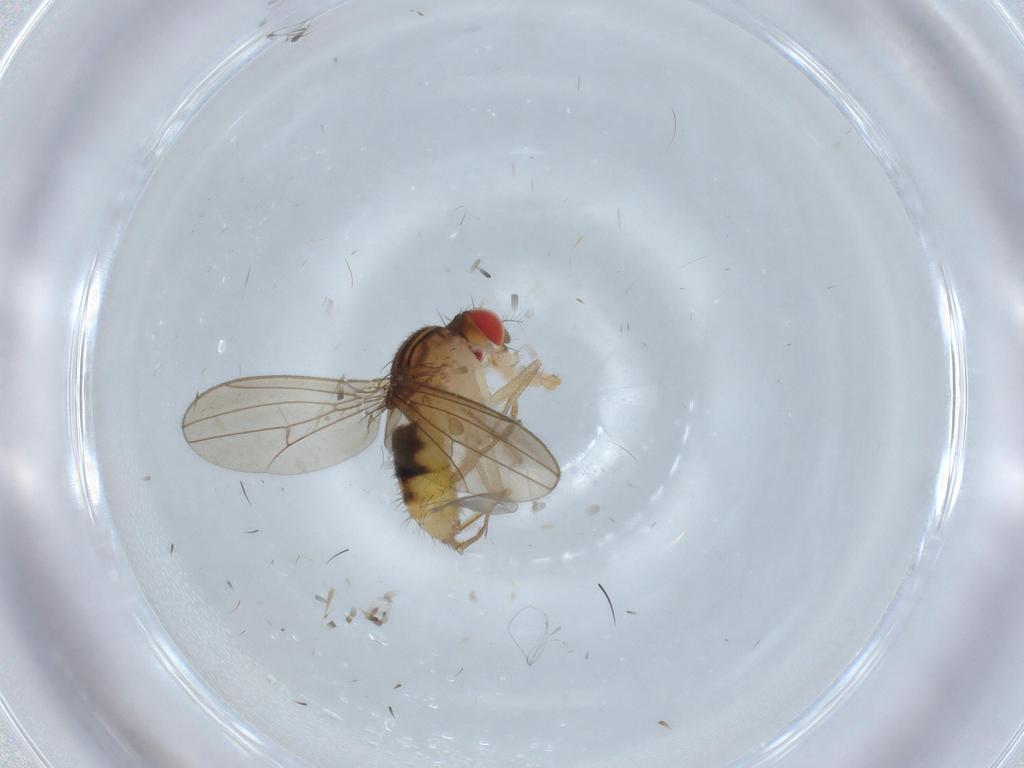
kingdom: Animalia
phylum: Arthropoda
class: Insecta
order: Diptera
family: Drosophilidae
